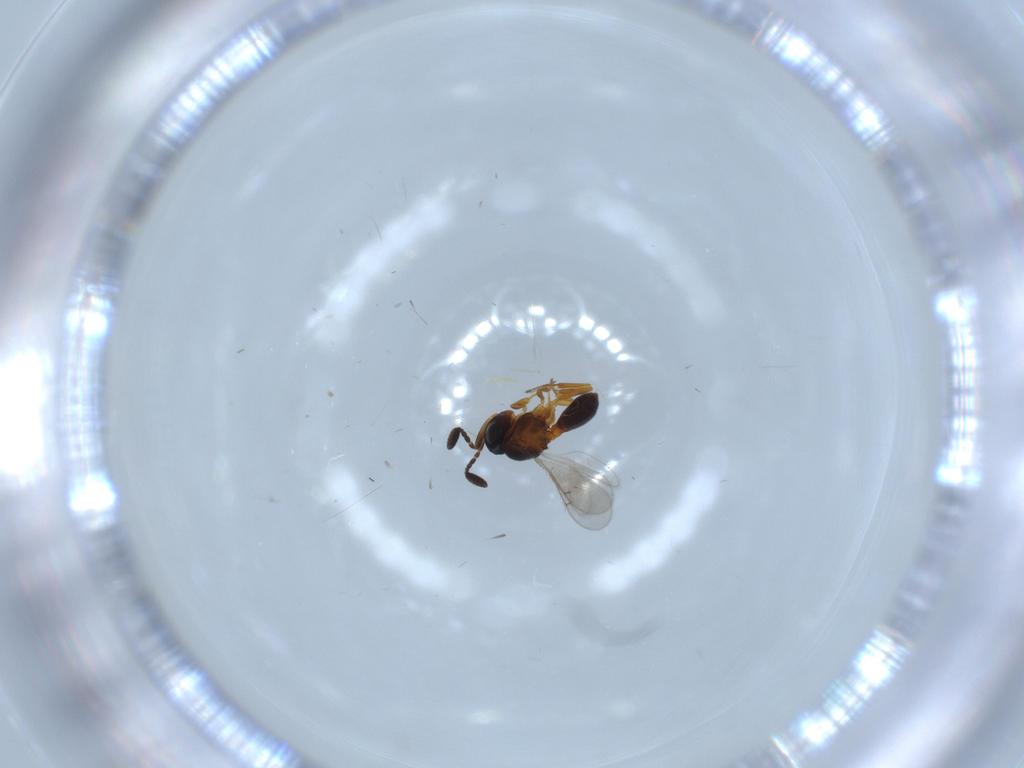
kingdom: Animalia
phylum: Arthropoda
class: Insecta
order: Hymenoptera
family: Scelionidae
